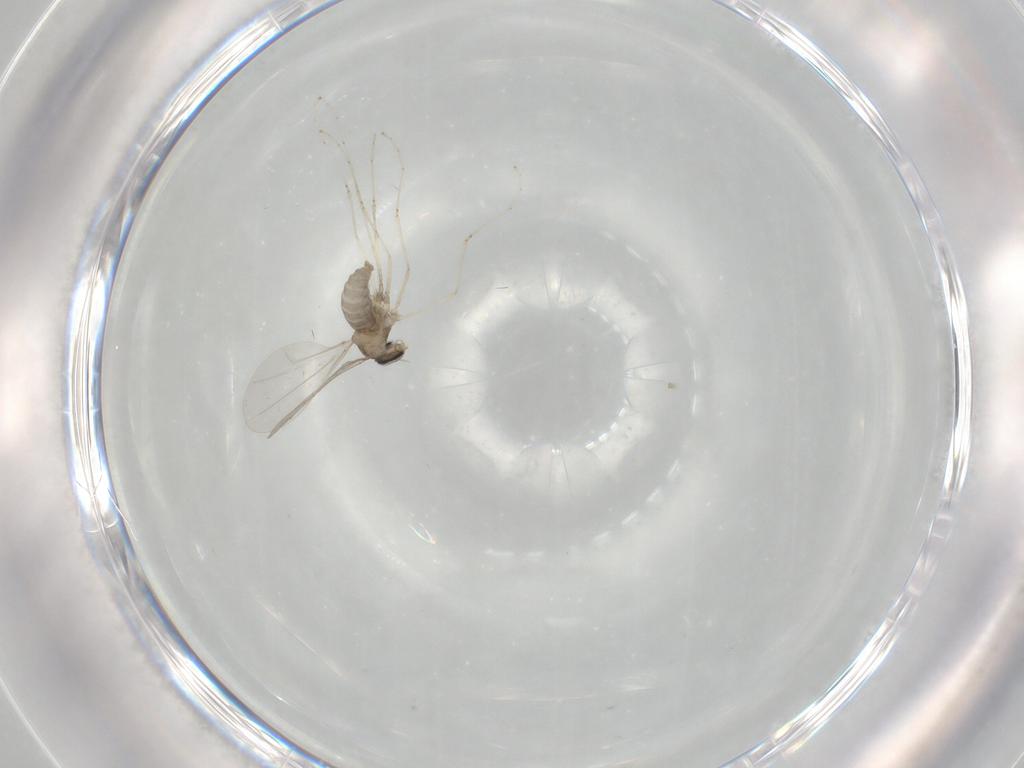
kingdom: Animalia
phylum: Arthropoda
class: Insecta
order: Diptera
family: Cecidomyiidae
